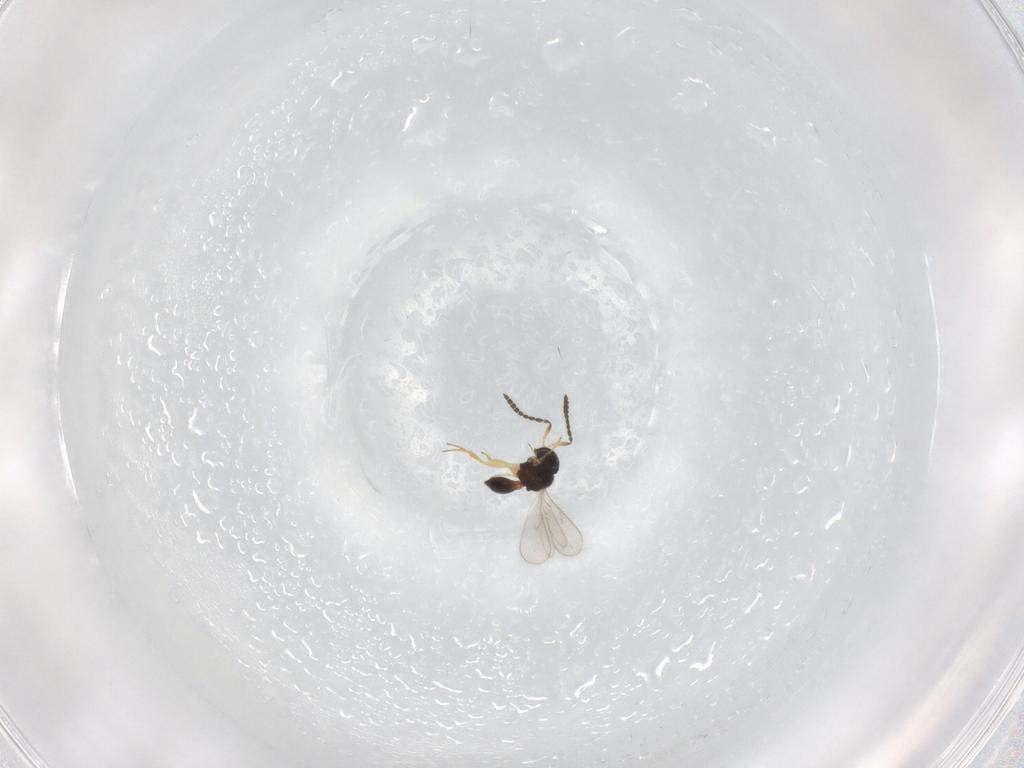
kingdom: Animalia
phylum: Arthropoda
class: Insecta
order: Hymenoptera
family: Scelionidae
